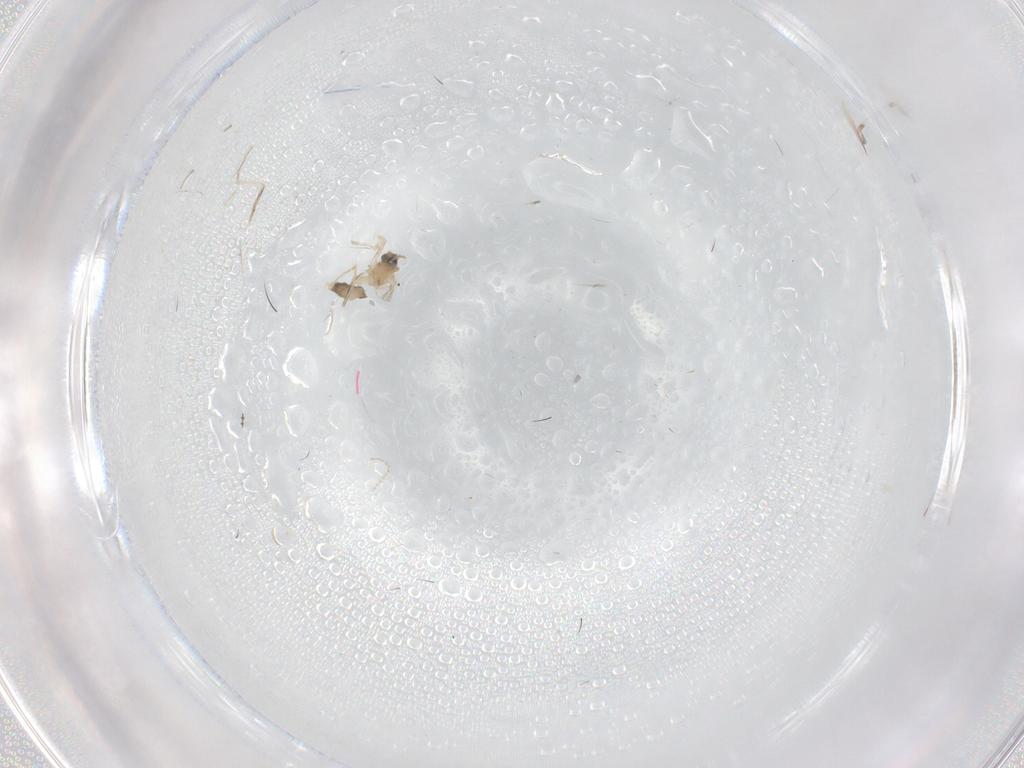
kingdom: Animalia
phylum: Arthropoda
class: Insecta
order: Diptera
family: Cecidomyiidae
